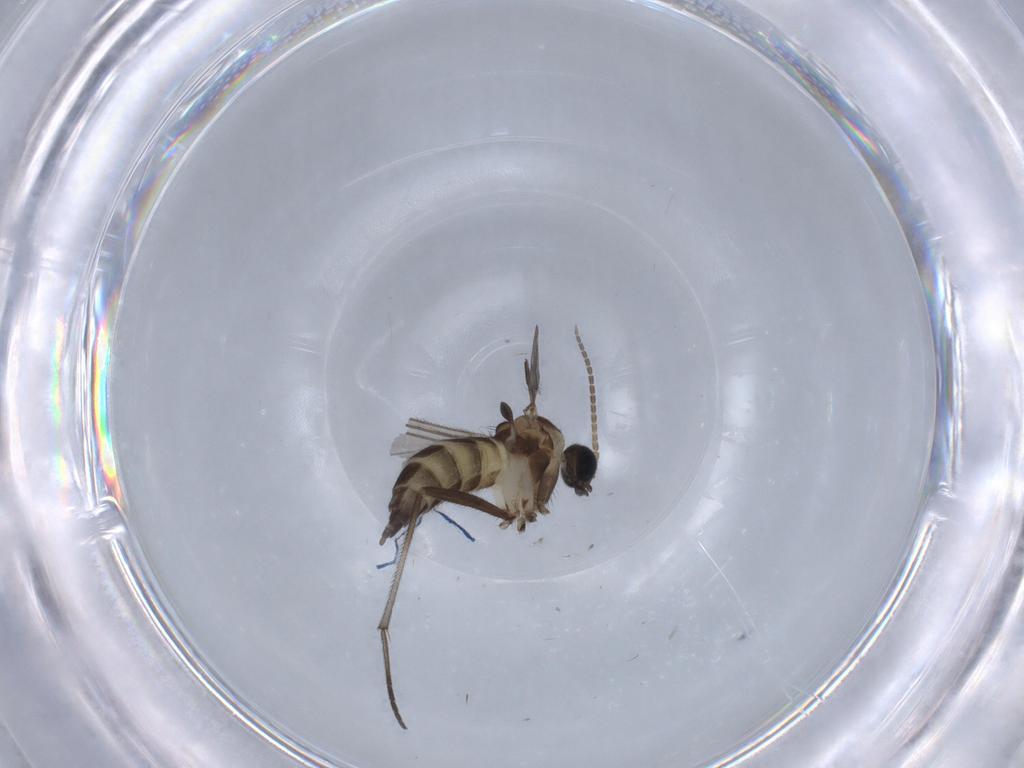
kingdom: Animalia
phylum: Arthropoda
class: Insecta
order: Diptera
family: Sciaridae
